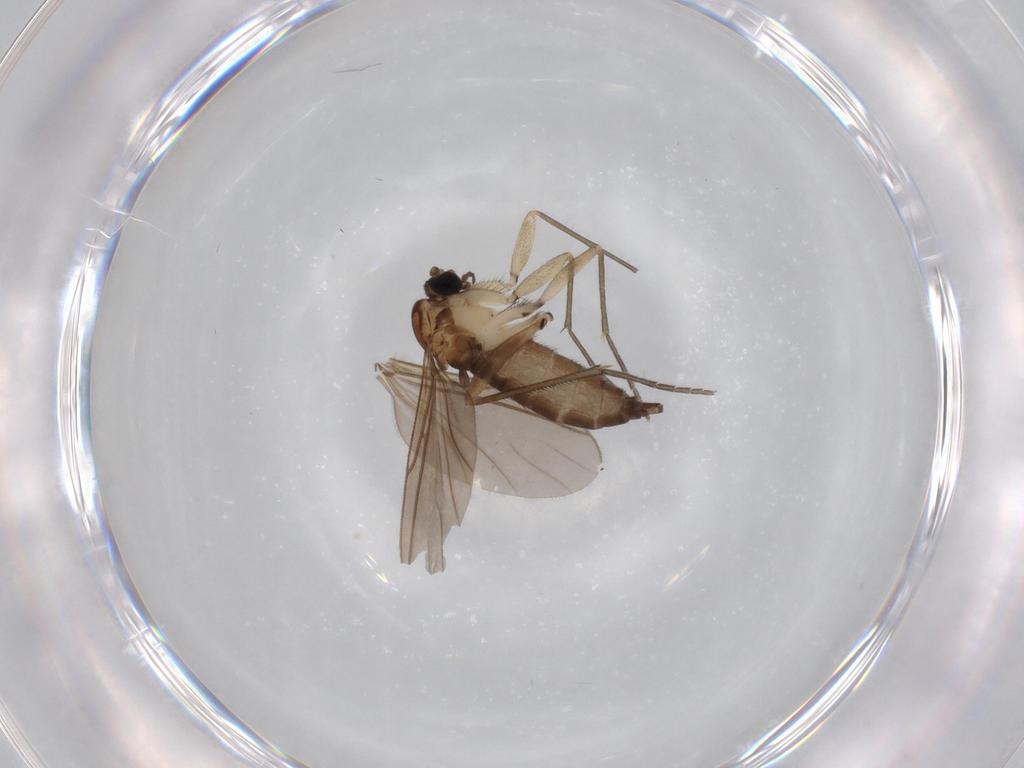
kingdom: Animalia
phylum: Arthropoda
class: Insecta
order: Diptera
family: Sciaridae
